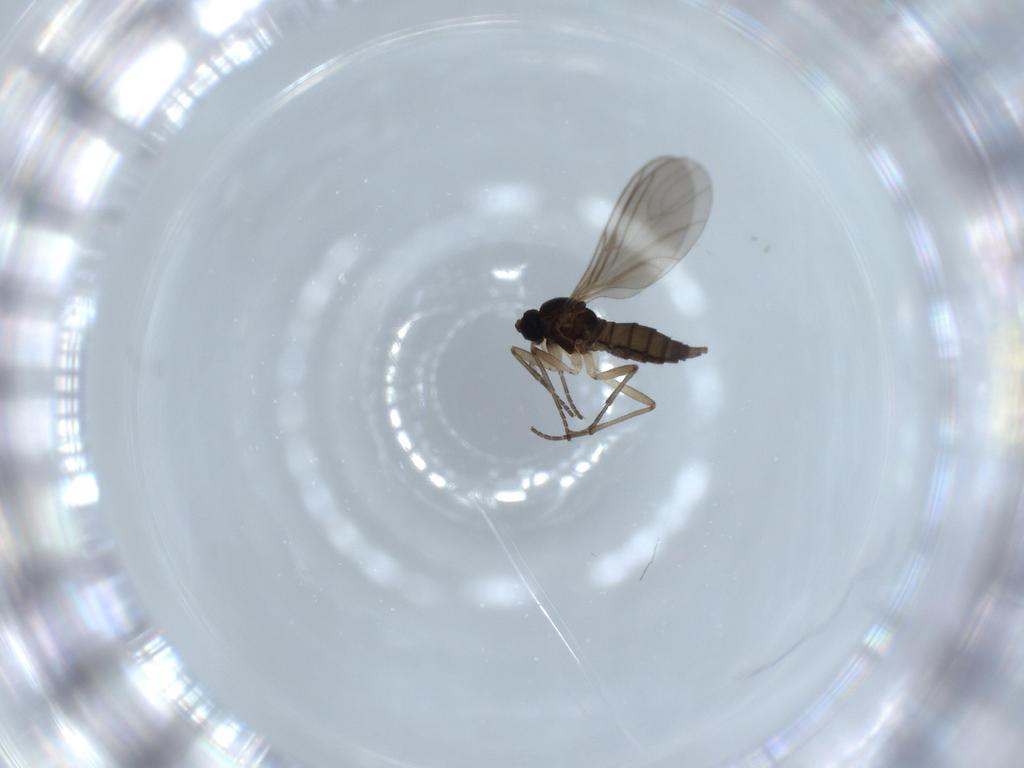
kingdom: Animalia
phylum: Arthropoda
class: Insecta
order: Diptera
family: Sciaridae
